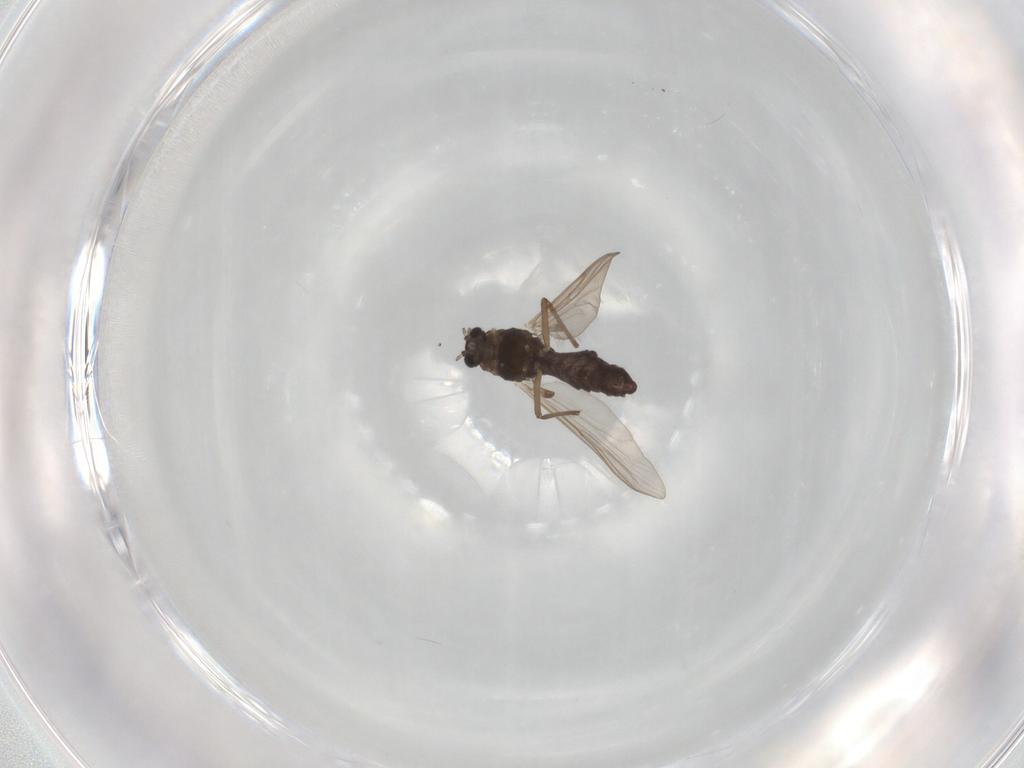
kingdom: Animalia
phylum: Arthropoda
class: Insecta
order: Diptera
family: Chironomidae
